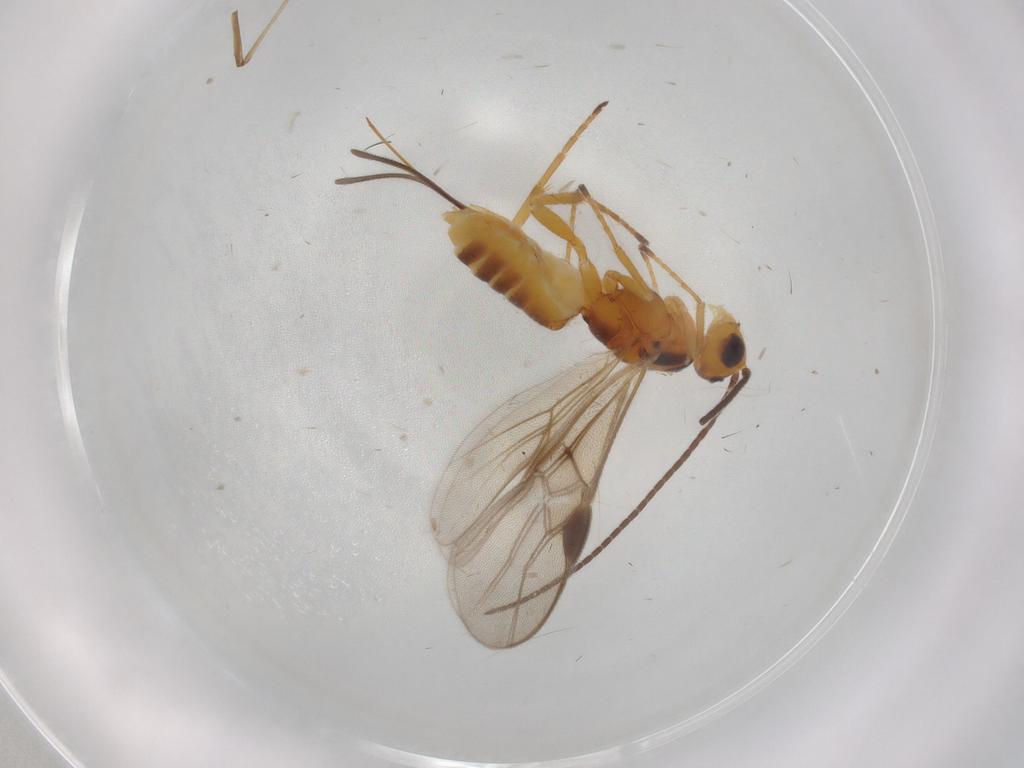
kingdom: Animalia
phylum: Arthropoda
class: Insecta
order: Hymenoptera
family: Braconidae
